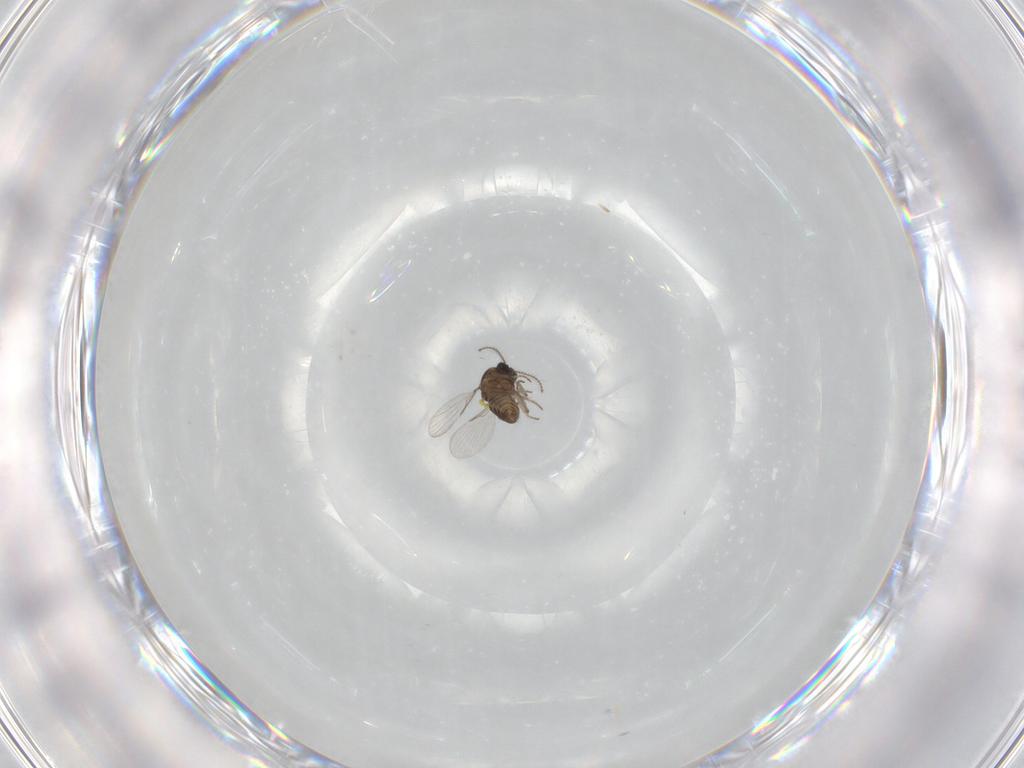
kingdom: Animalia
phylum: Arthropoda
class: Insecta
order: Diptera
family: Ceratopogonidae
